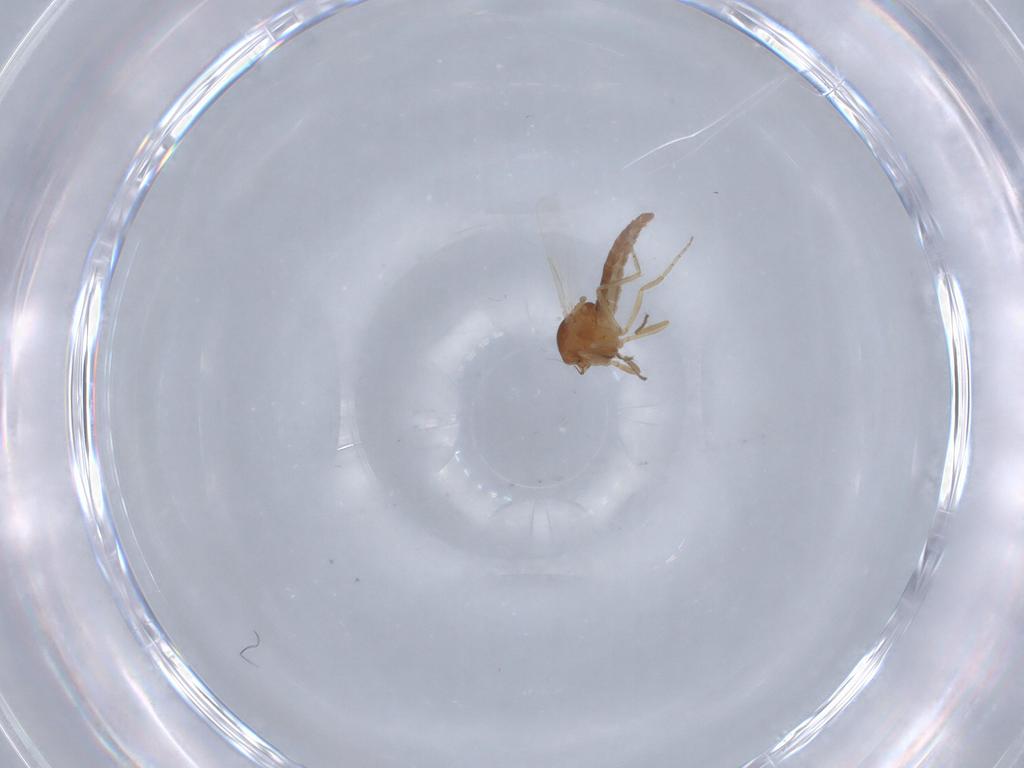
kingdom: Animalia
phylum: Arthropoda
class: Insecta
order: Diptera
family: Ceratopogonidae
